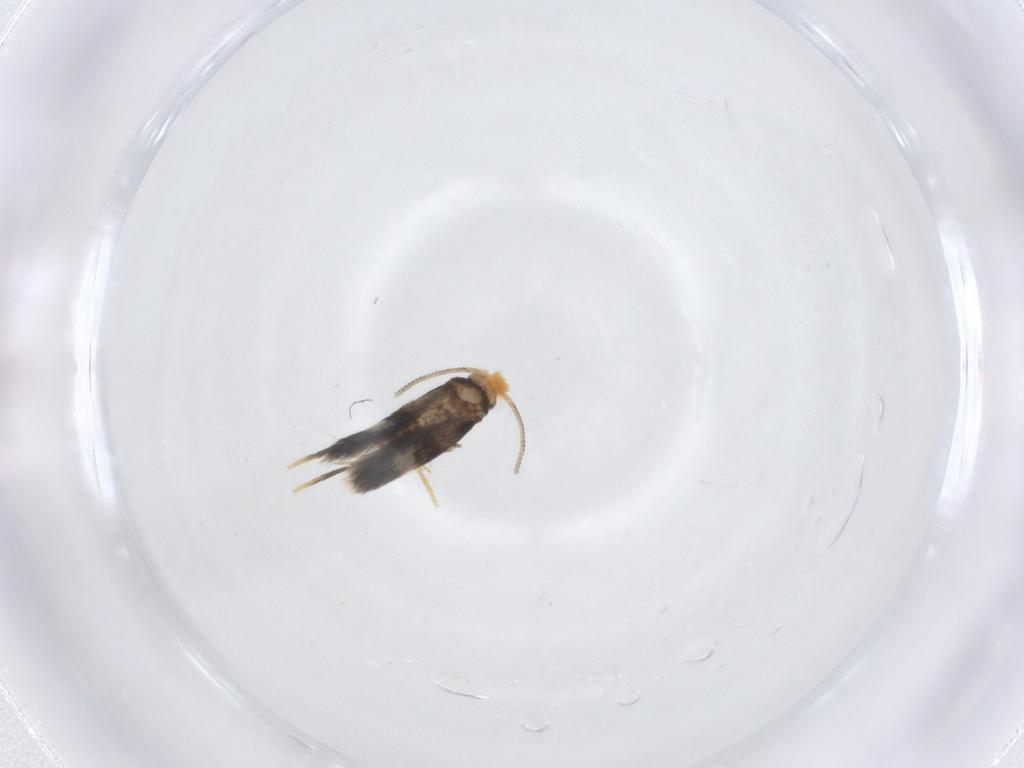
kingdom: Animalia
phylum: Arthropoda
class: Insecta
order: Lepidoptera
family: Nepticulidae
